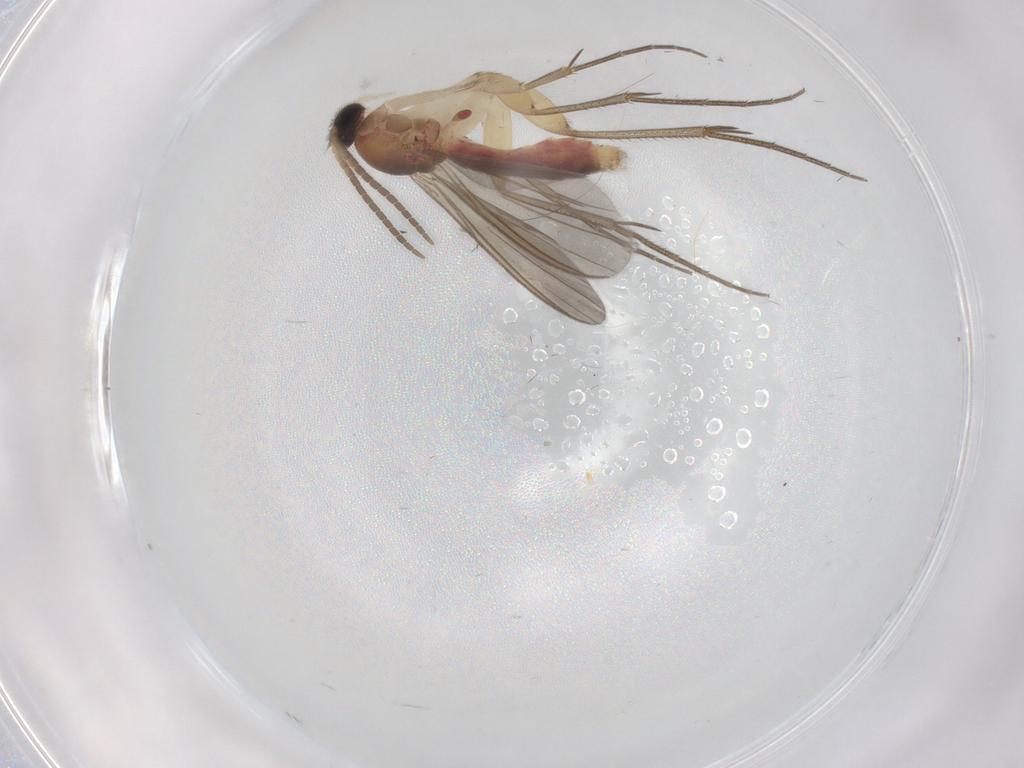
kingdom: Animalia
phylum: Arthropoda
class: Insecta
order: Diptera
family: Mycetophilidae
